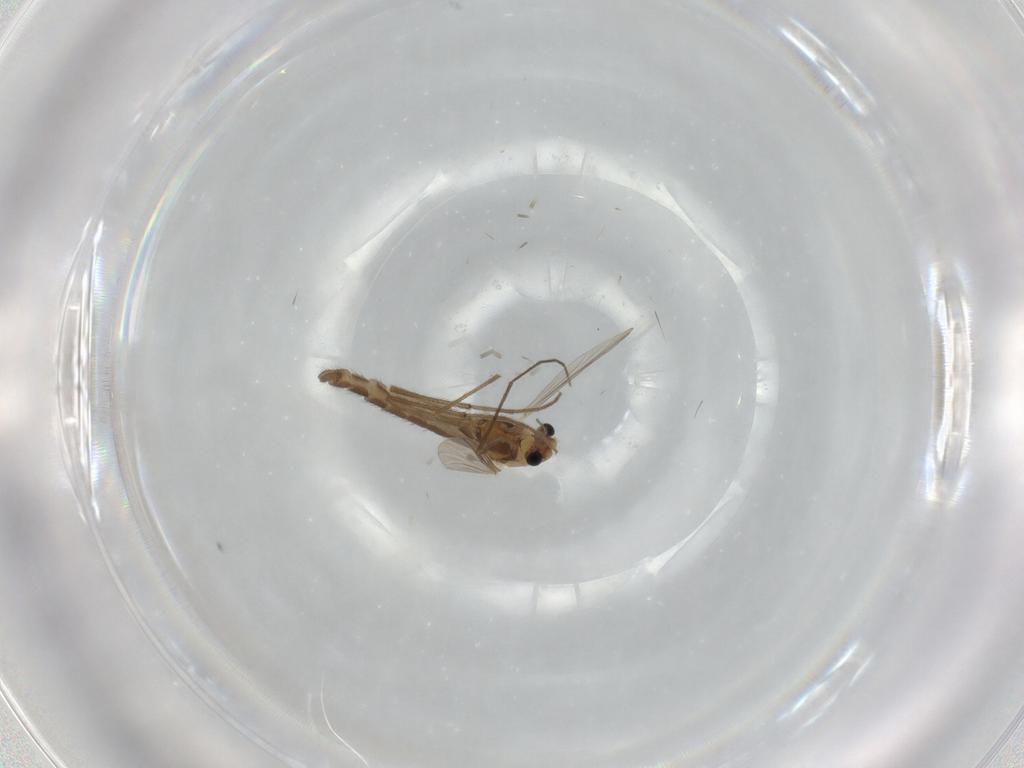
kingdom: Animalia
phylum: Arthropoda
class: Insecta
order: Diptera
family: Chironomidae
